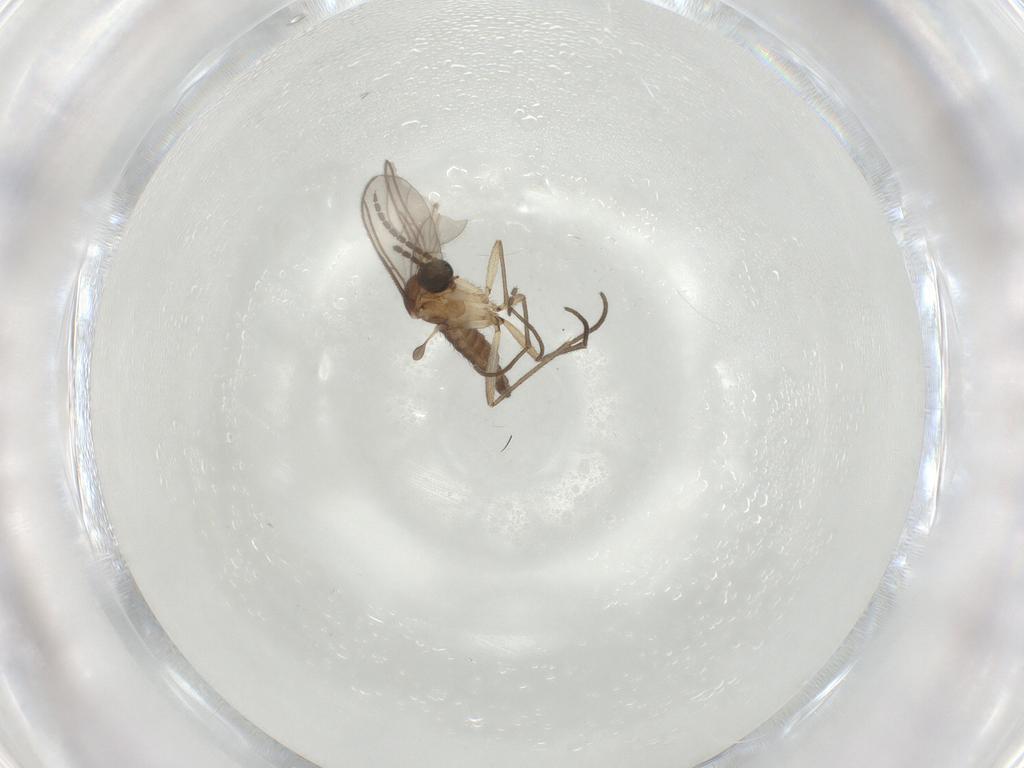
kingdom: Animalia
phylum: Arthropoda
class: Insecta
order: Diptera
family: Sciaridae
